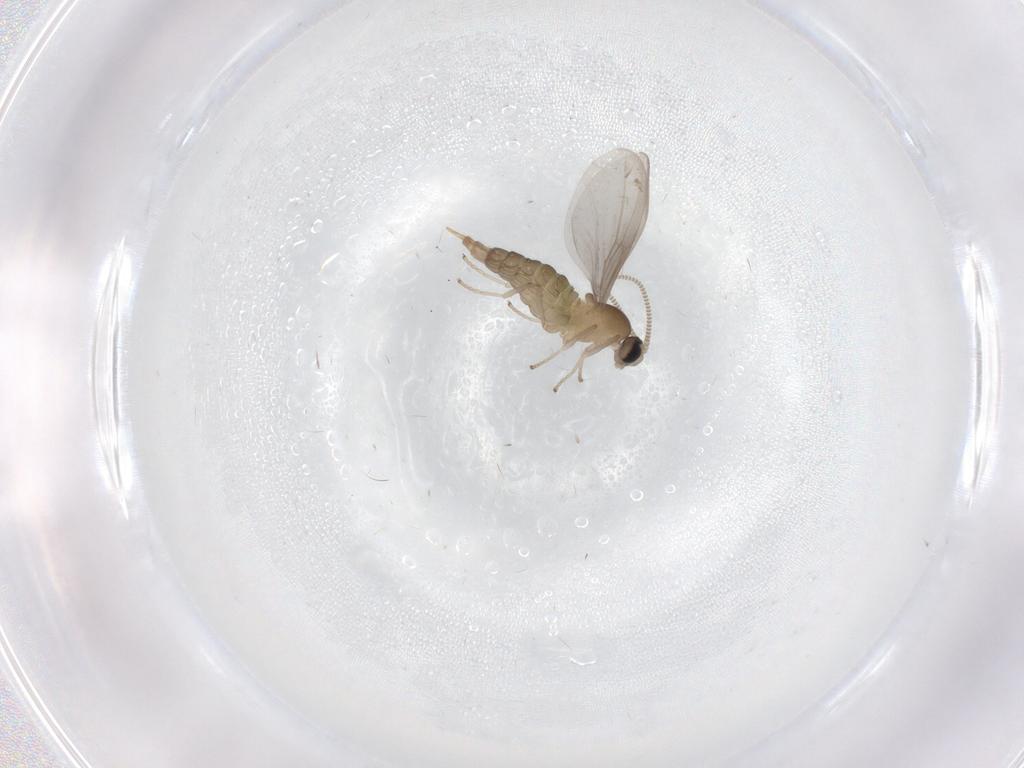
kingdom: Animalia
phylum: Arthropoda
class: Insecta
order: Diptera
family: Cecidomyiidae
